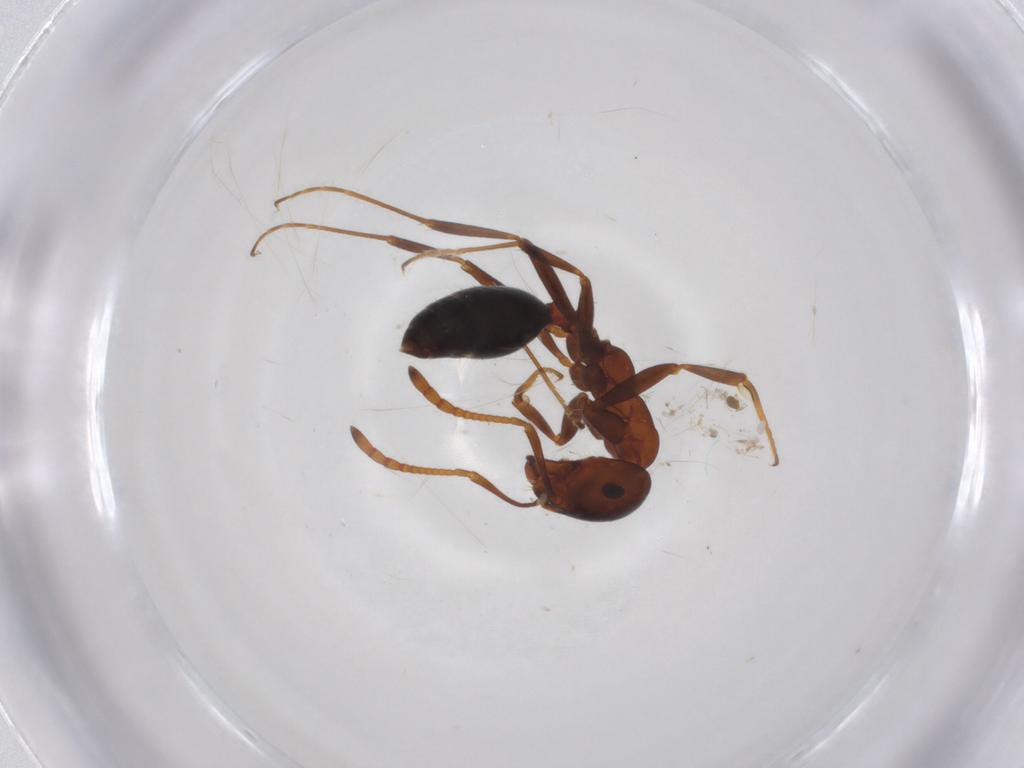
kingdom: Animalia
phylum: Arthropoda
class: Insecta
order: Hymenoptera
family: Formicidae
